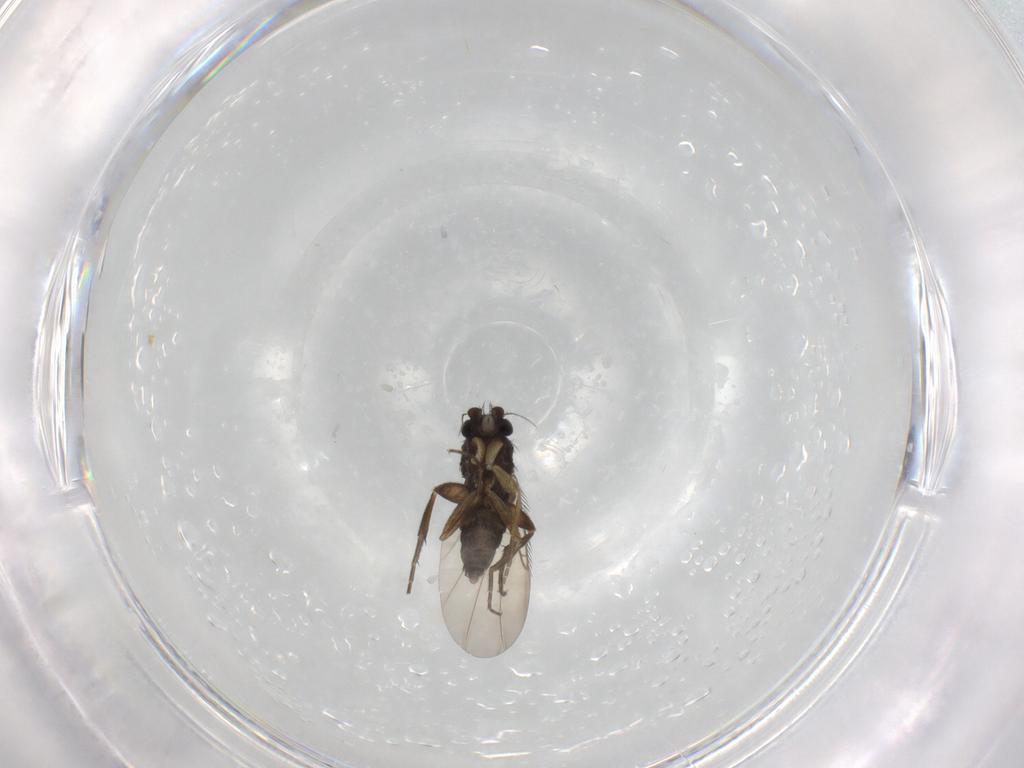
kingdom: Animalia
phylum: Arthropoda
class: Insecta
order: Diptera
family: Phoridae
